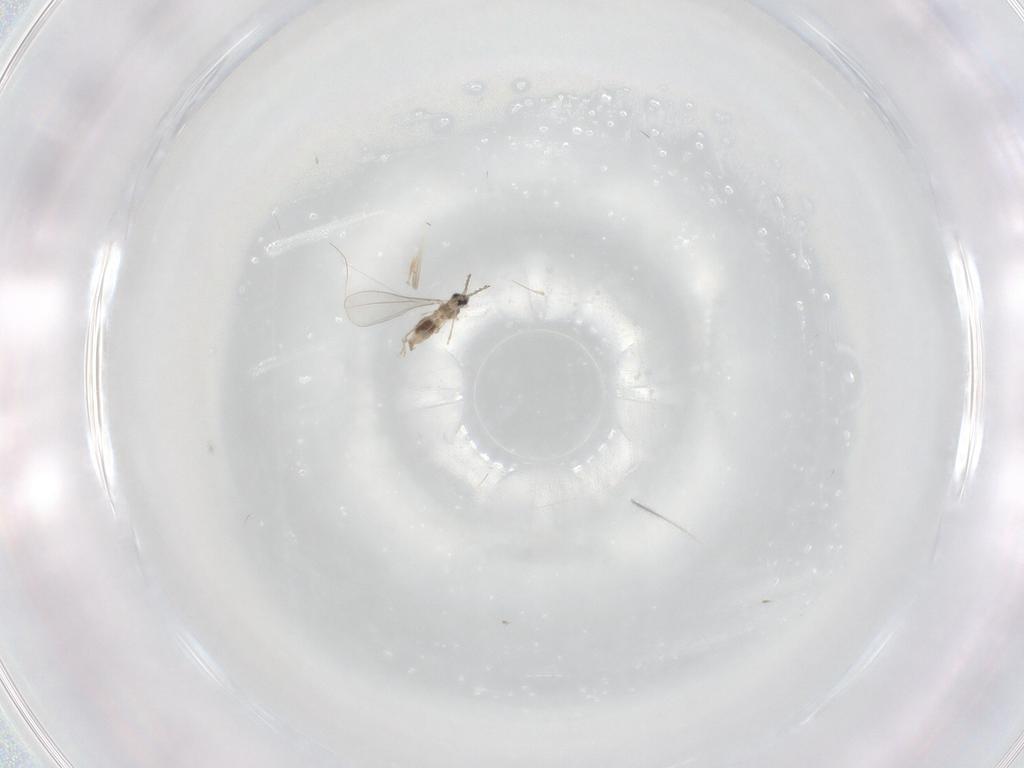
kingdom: Animalia
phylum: Arthropoda
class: Insecta
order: Diptera
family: Cecidomyiidae
